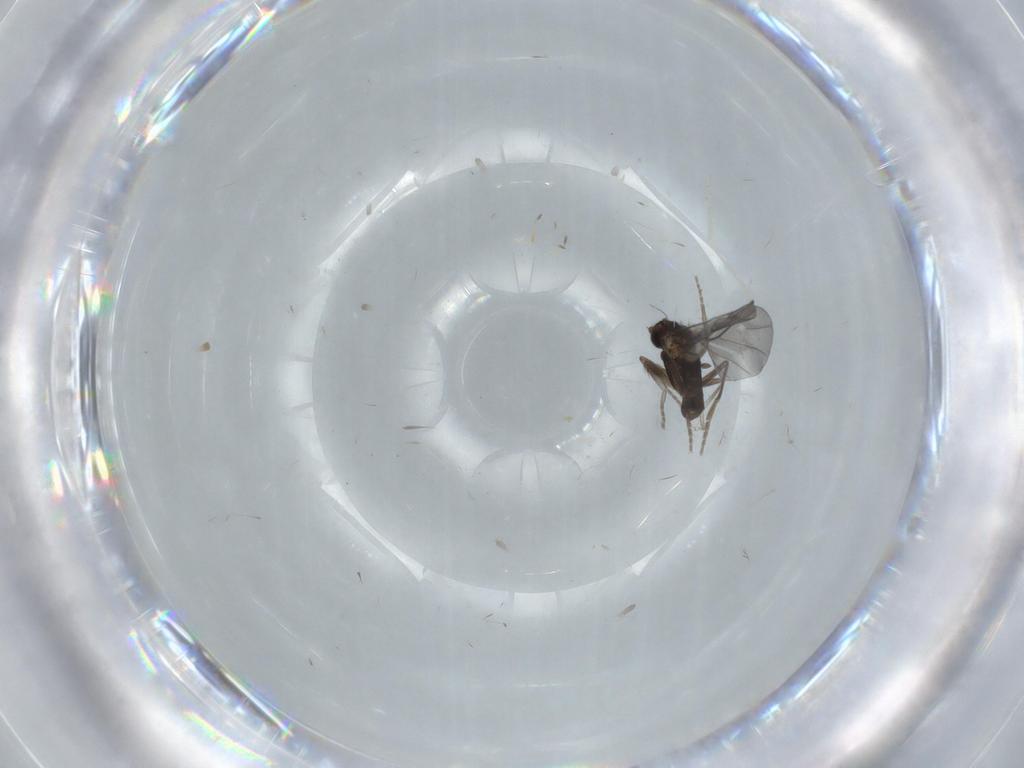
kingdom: Animalia
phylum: Arthropoda
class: Insecta
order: Diptera
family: Phoridae
